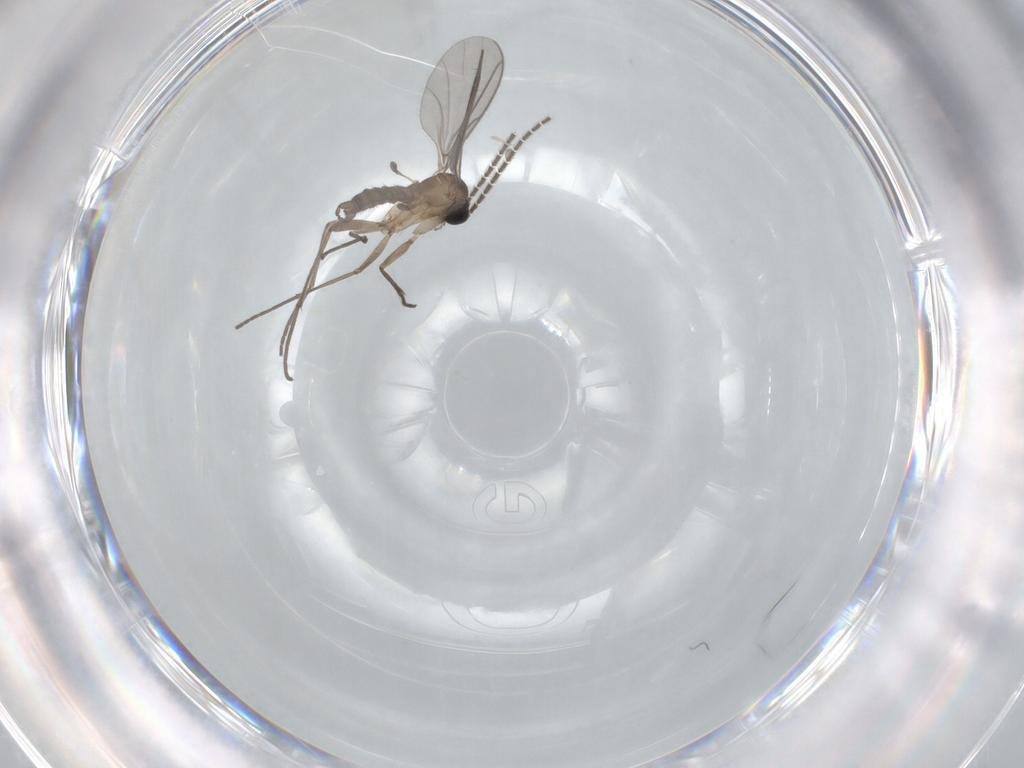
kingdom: Animalia
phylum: Arthropoda
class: Insecta
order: Diptera
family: Sciaridae
